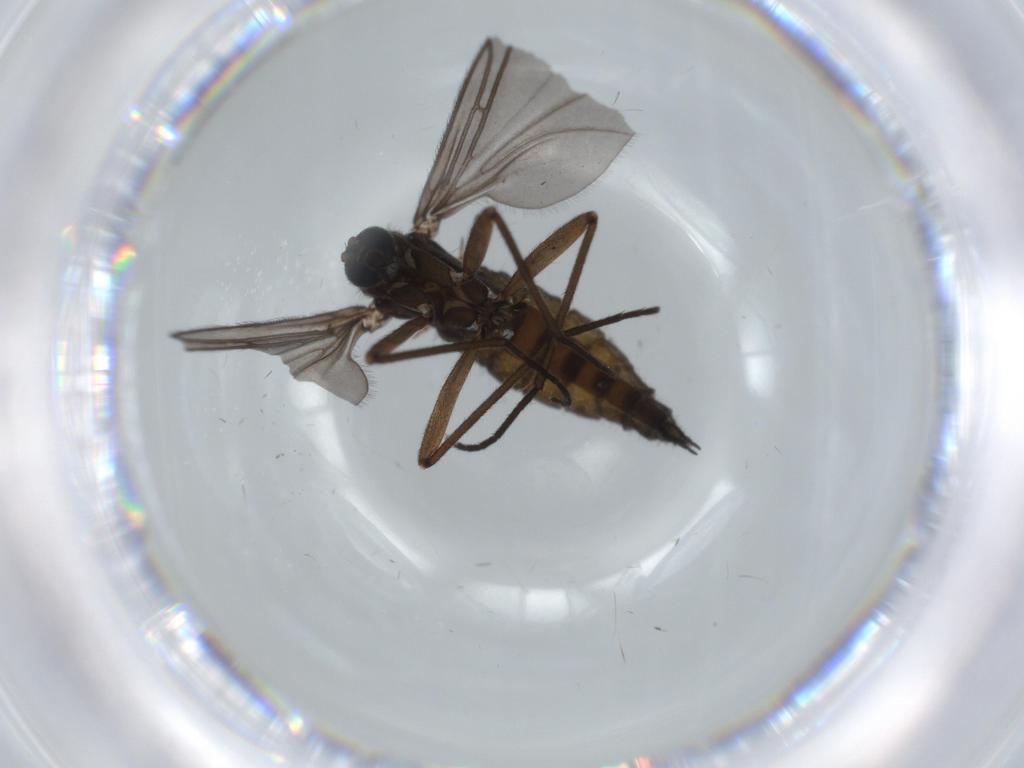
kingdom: Animalia
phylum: Arthropoda
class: Insecta
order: Diptera
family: Sciaridae
